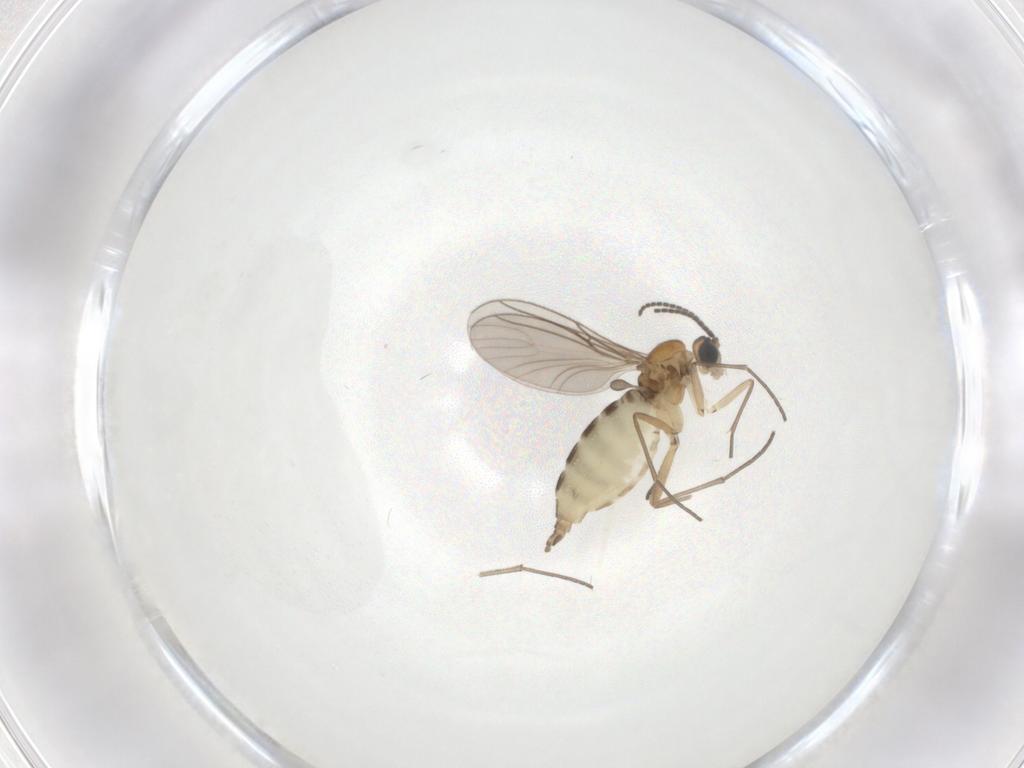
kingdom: Animalia
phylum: Arthropoda
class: Insecta
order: Diptera
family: Sciaridae
